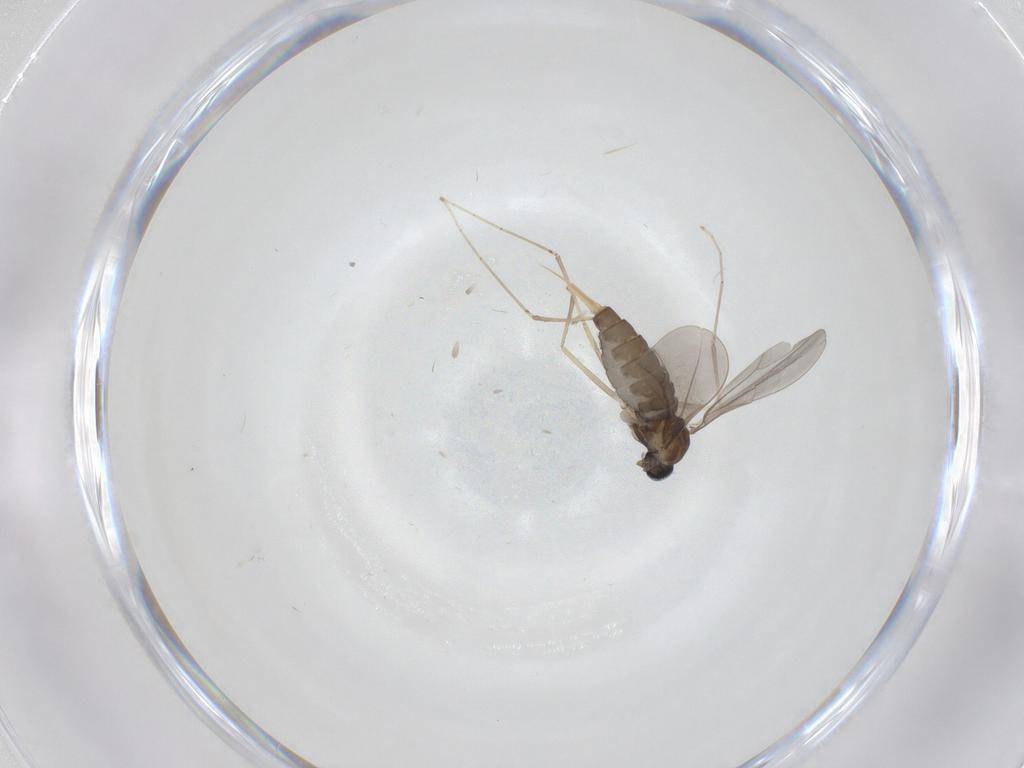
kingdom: Animalia
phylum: Arthropoda
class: Insecta
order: Diptera
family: Cecidomyiidae
